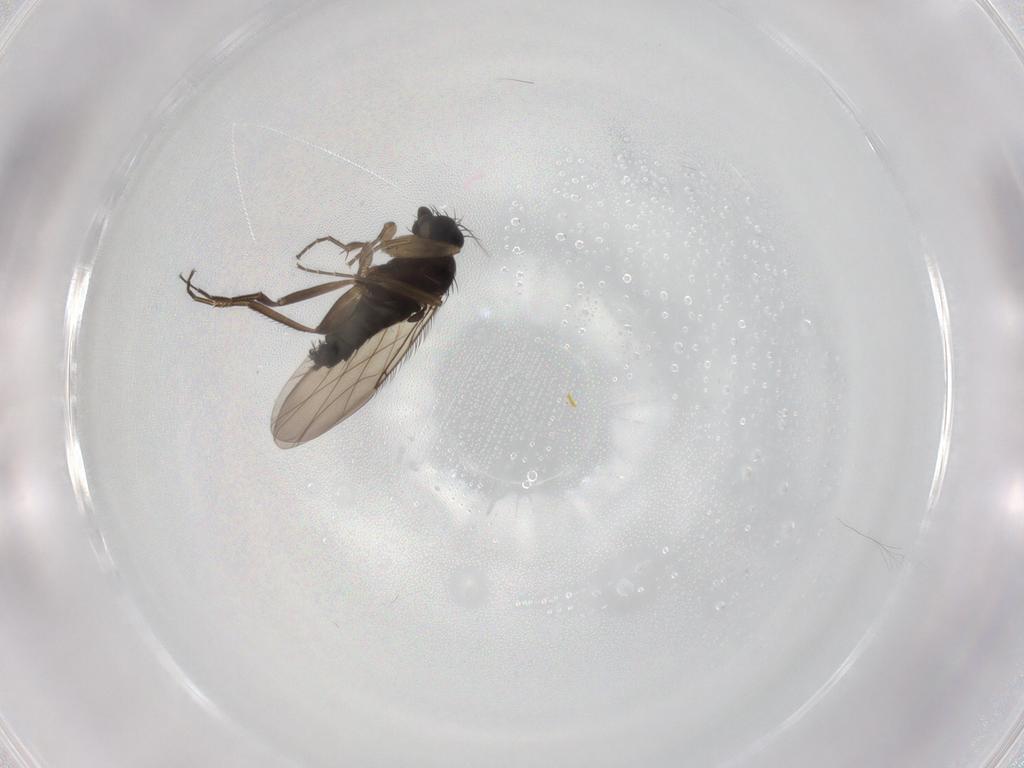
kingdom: Animalia
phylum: Arthropoda
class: Insecta
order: Diptera
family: Phoridae
